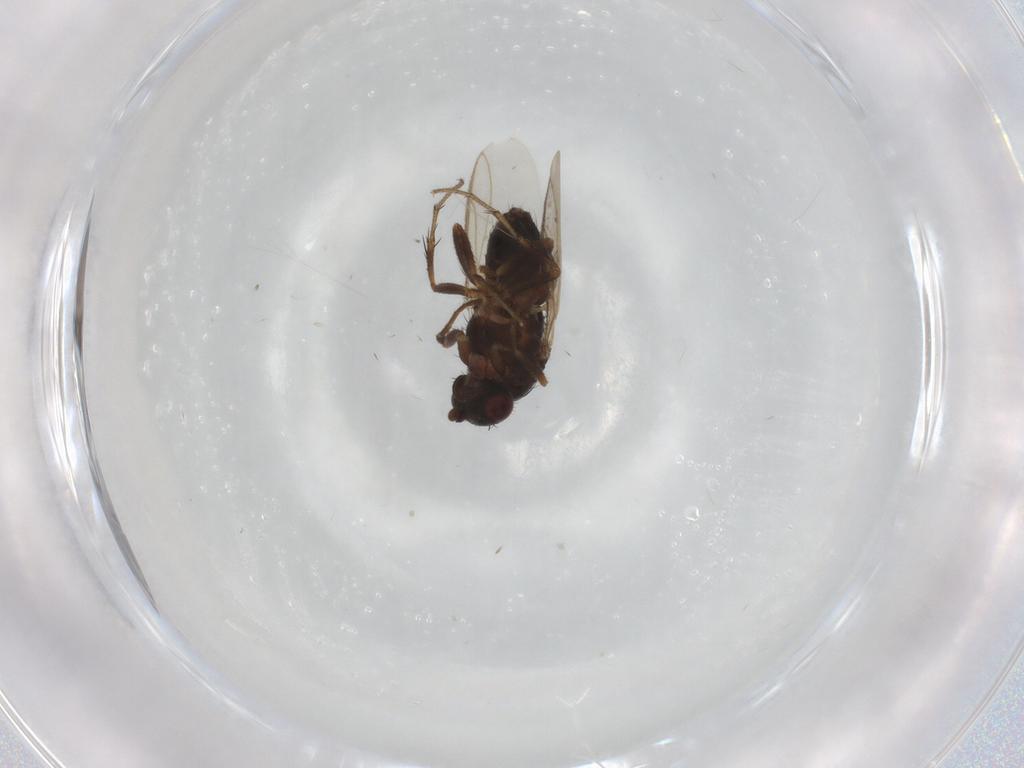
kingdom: Animalia
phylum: Arthropoda
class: Insecta
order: Diptera
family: Sphaeroceridae
